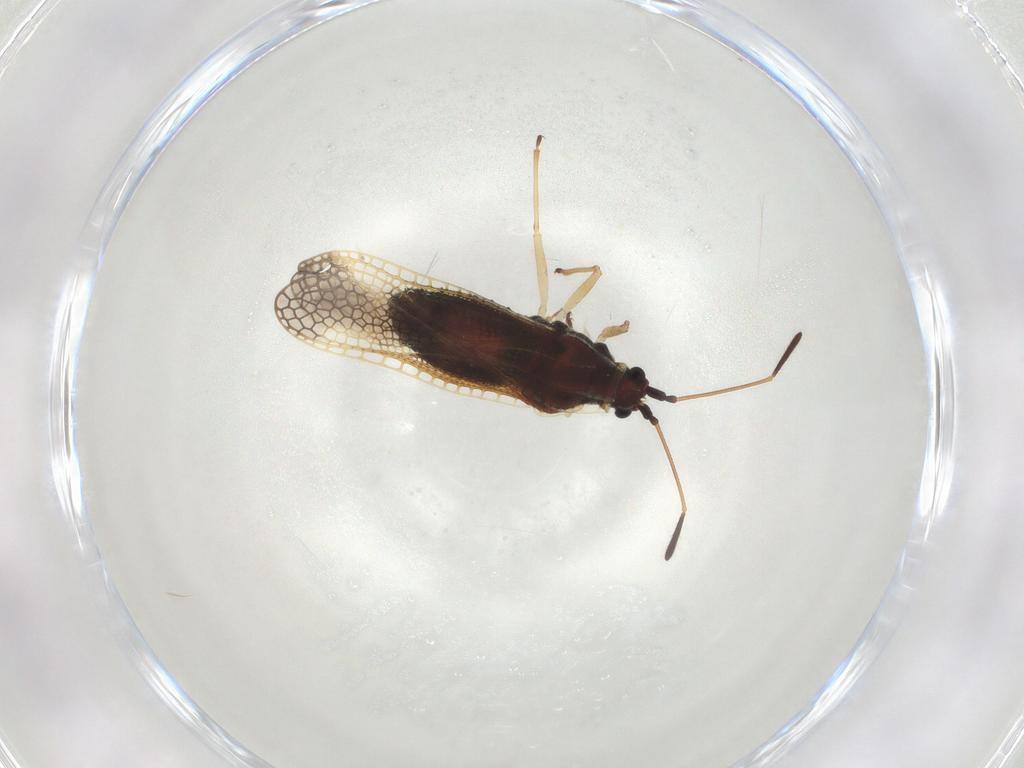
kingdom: Animalia
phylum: Arthropoda
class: Insecta
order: Hemiptera
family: Tingidae
